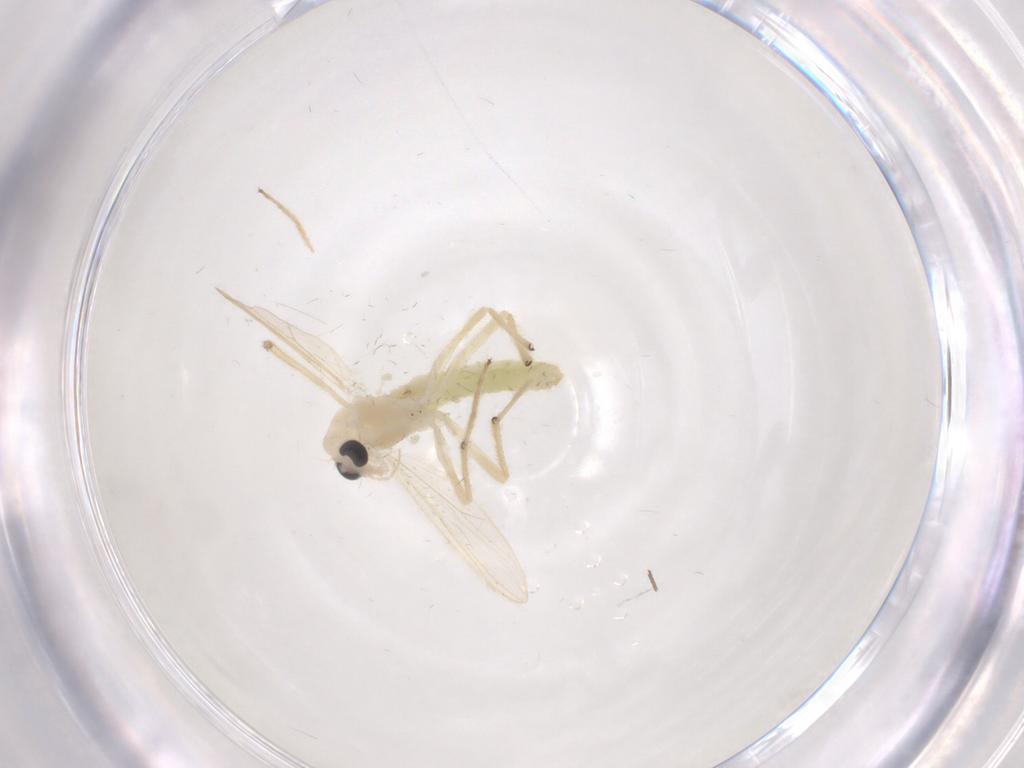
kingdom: Animalia
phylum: Arthropoda
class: Insecta
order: Diptera
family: Chironomidae
